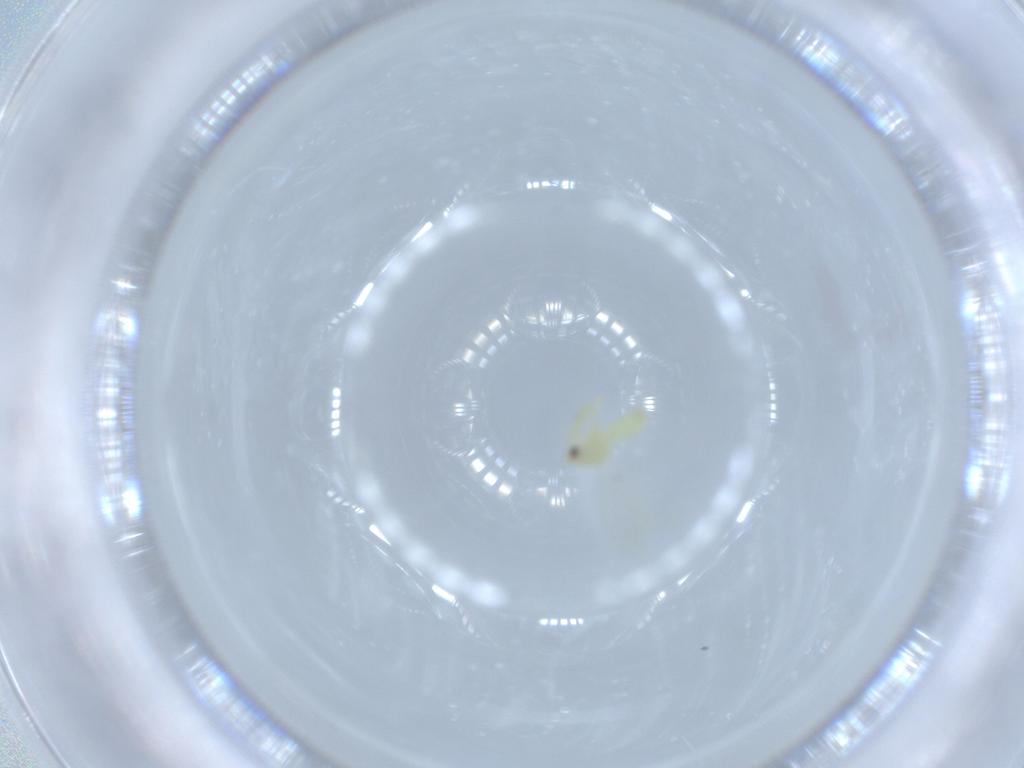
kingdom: Animalia
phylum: Arthropoda
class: Insecta
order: Hemiptera
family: Aleyrodidae
